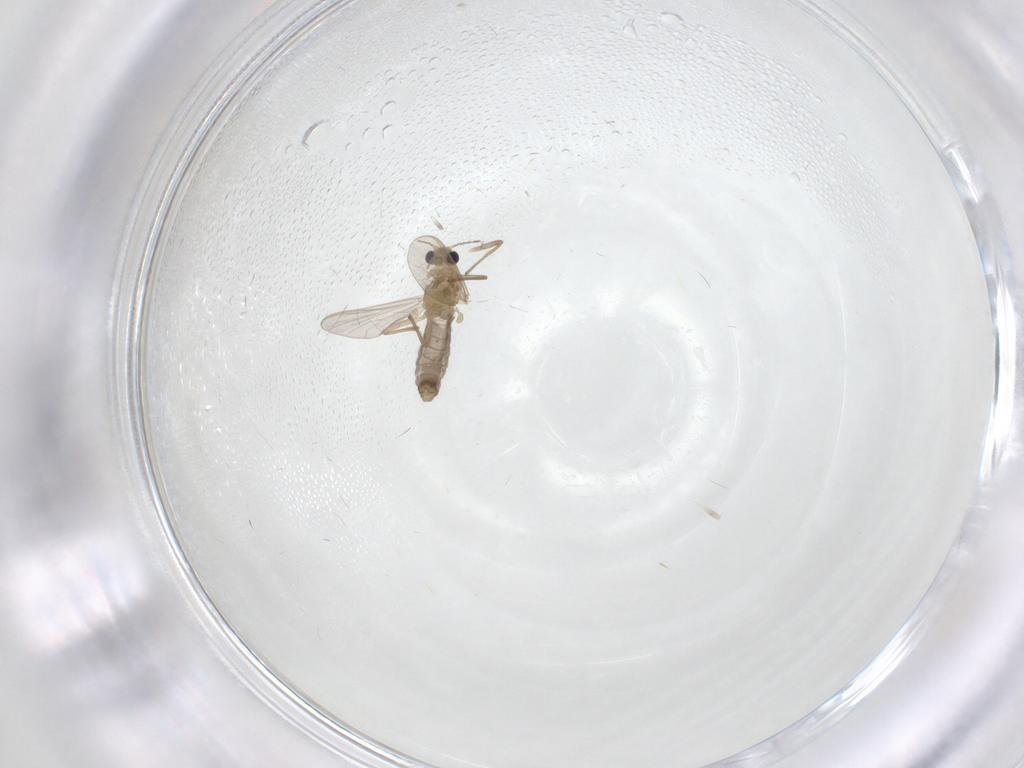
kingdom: Animalia
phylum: Arthropoda
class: Insecta
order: Diptera
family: Chironomidae
